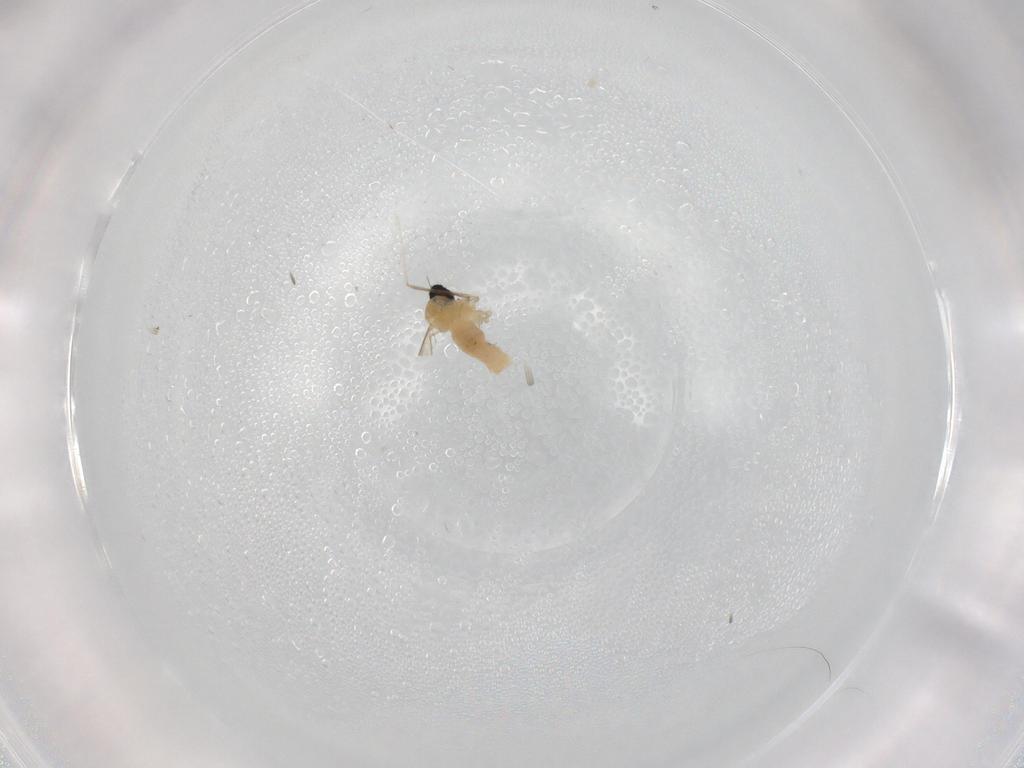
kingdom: Animalia
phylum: Arthropoda
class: Insecta
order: Diptera
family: Cecidomyiidae
